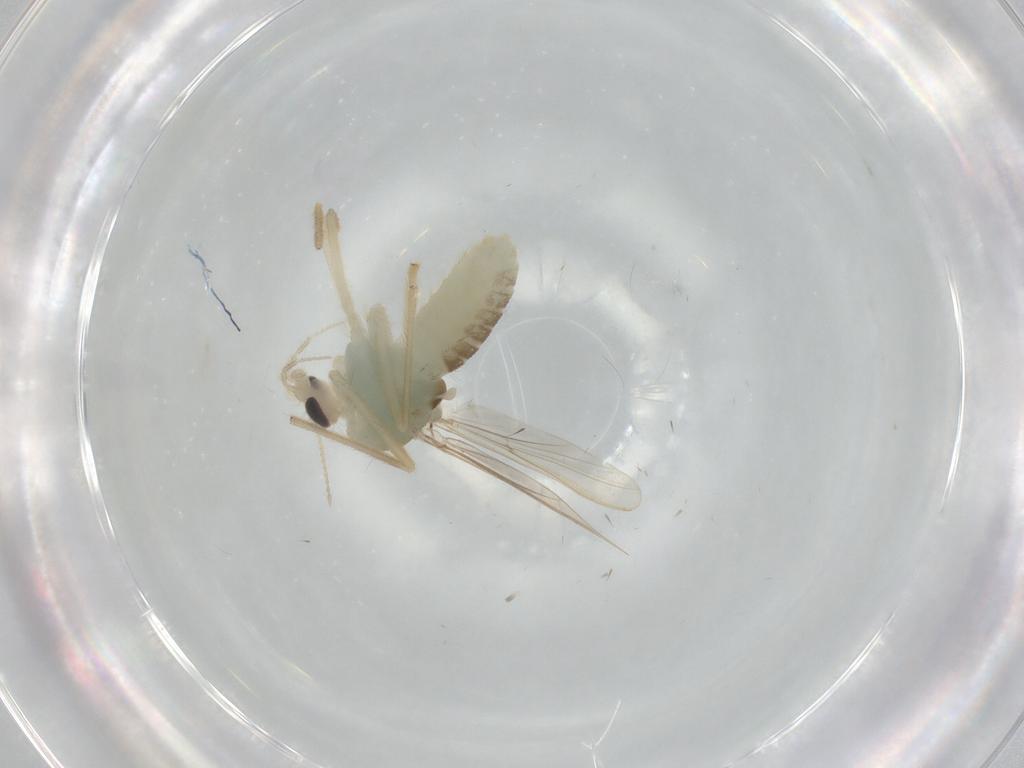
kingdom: Animalia
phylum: Arthropoda
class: Insecta
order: Diptera
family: Chironomidae
